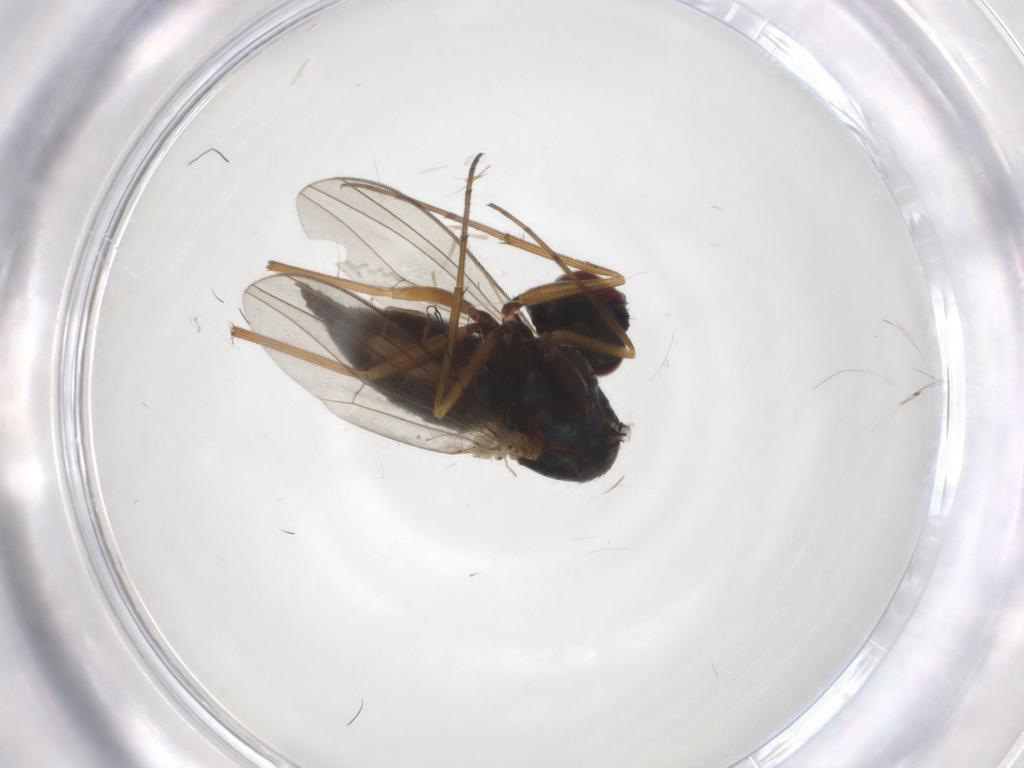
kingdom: Animalia
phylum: Arthropoda
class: Insecta
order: Diptera
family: Dolichopodidae
